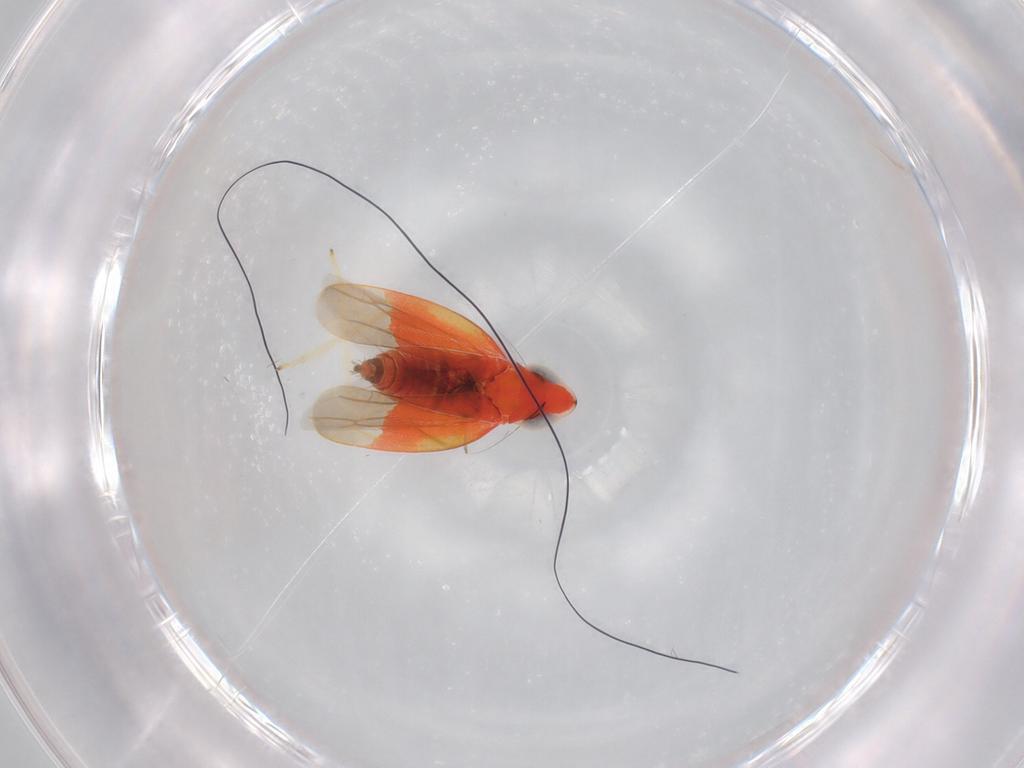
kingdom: Animalia
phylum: Arthropoda
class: Insecta
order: Hemiptera
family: Cicadellidae
